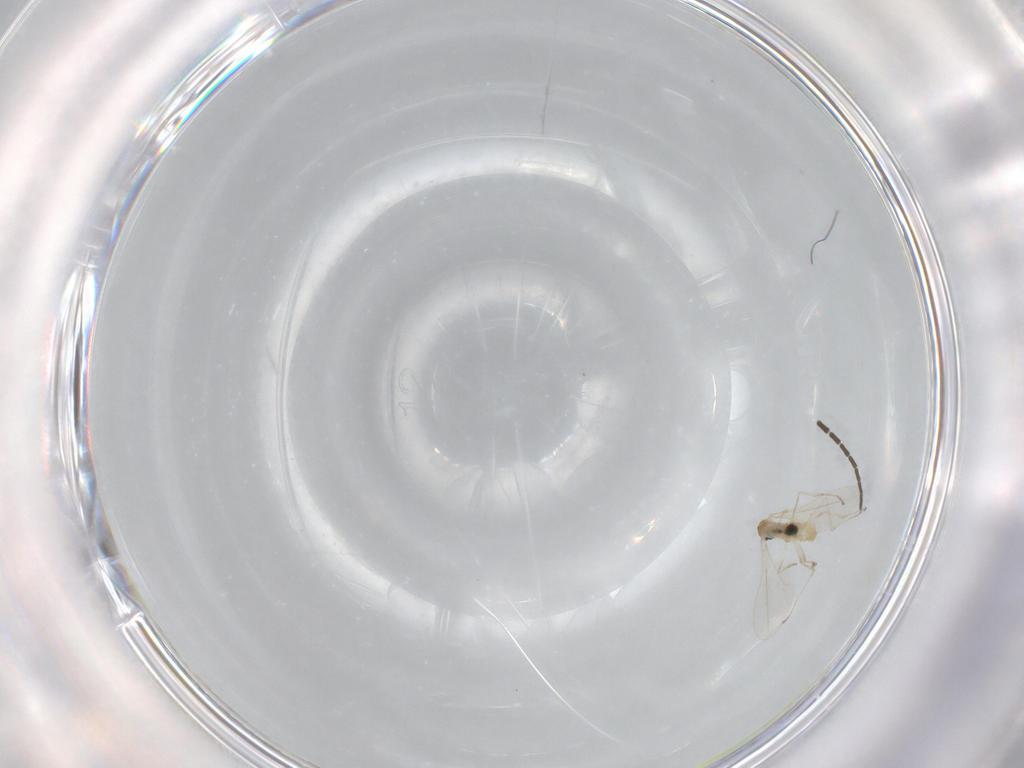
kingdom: Animalia
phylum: Arthropoda
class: Insecta
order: Diptera
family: Cecidomyiidae
